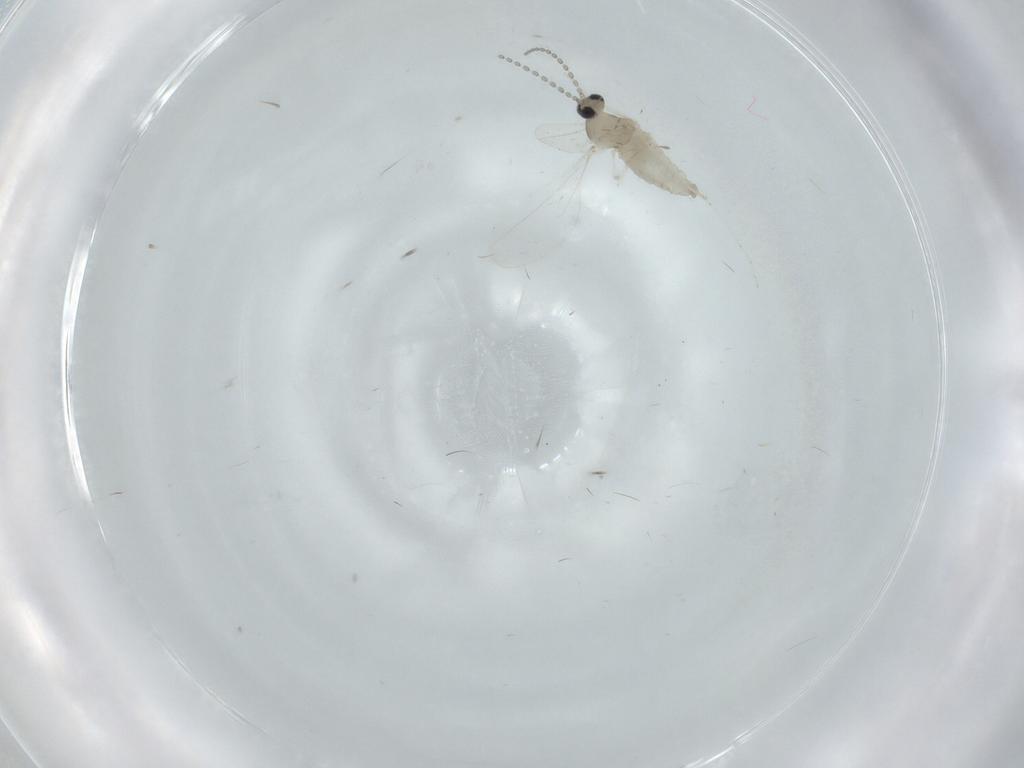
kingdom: Animalia
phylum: Arthropoda
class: Insecta
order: Diptera
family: Cecidomyiidae
